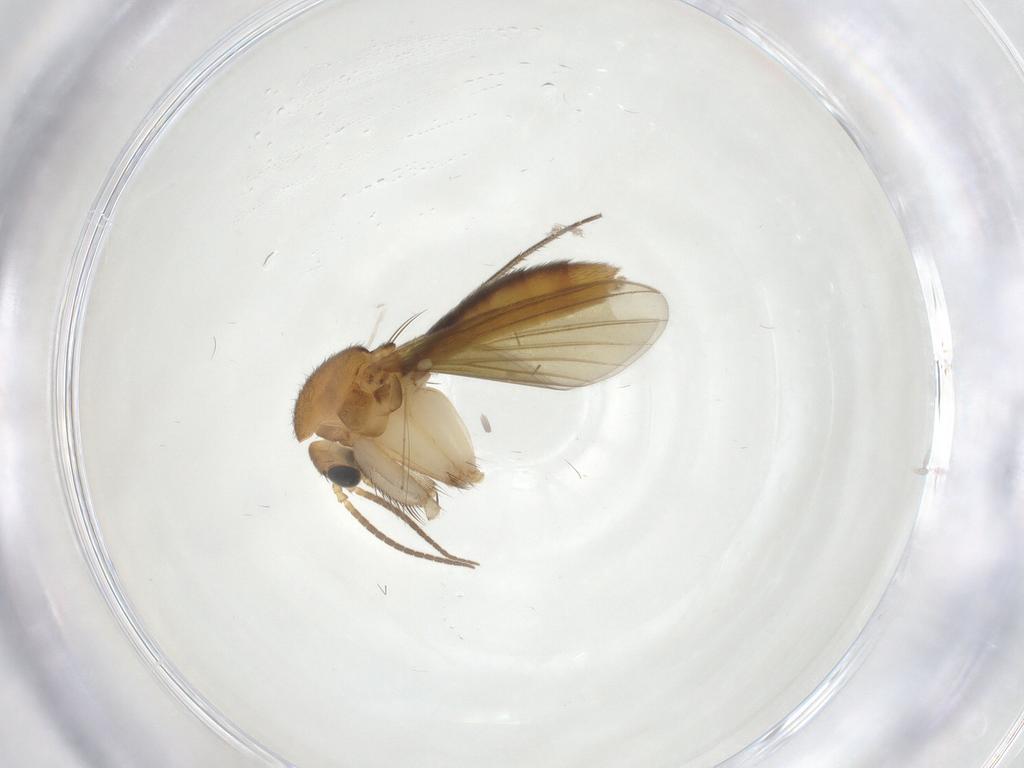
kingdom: Animalia
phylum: Arthropoda
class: Insecta
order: Diptera
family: Mycetophilidae
